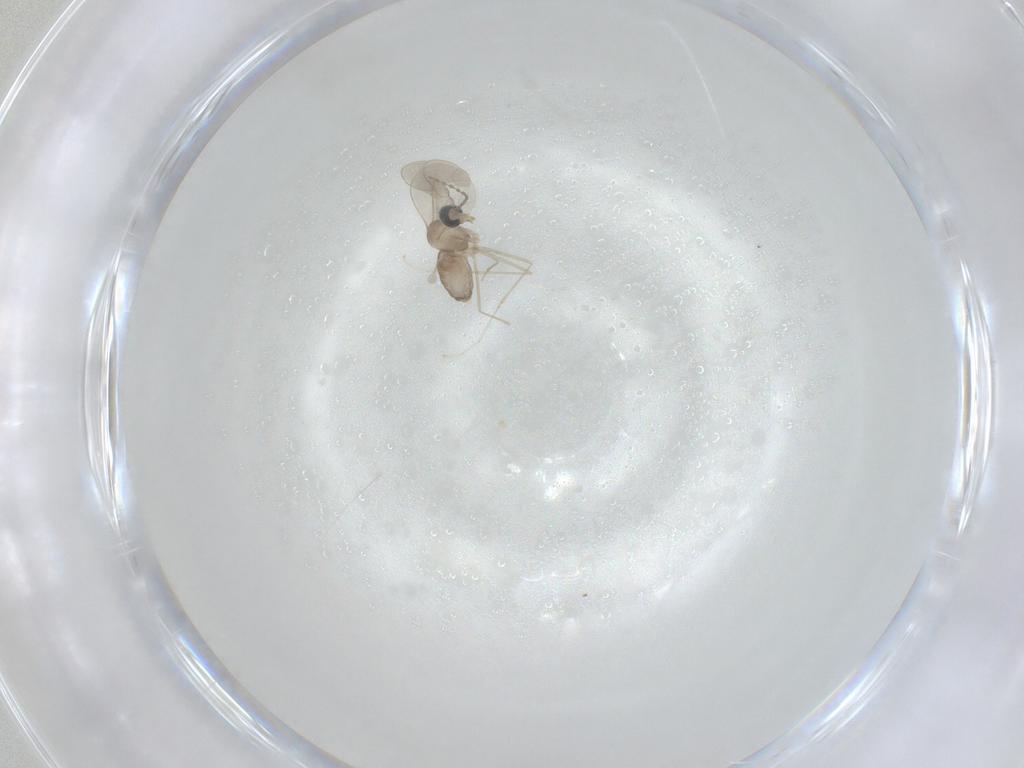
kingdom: Animalia
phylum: Arthropoda
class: Insecta
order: Diptera
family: Cecidomyiidae
